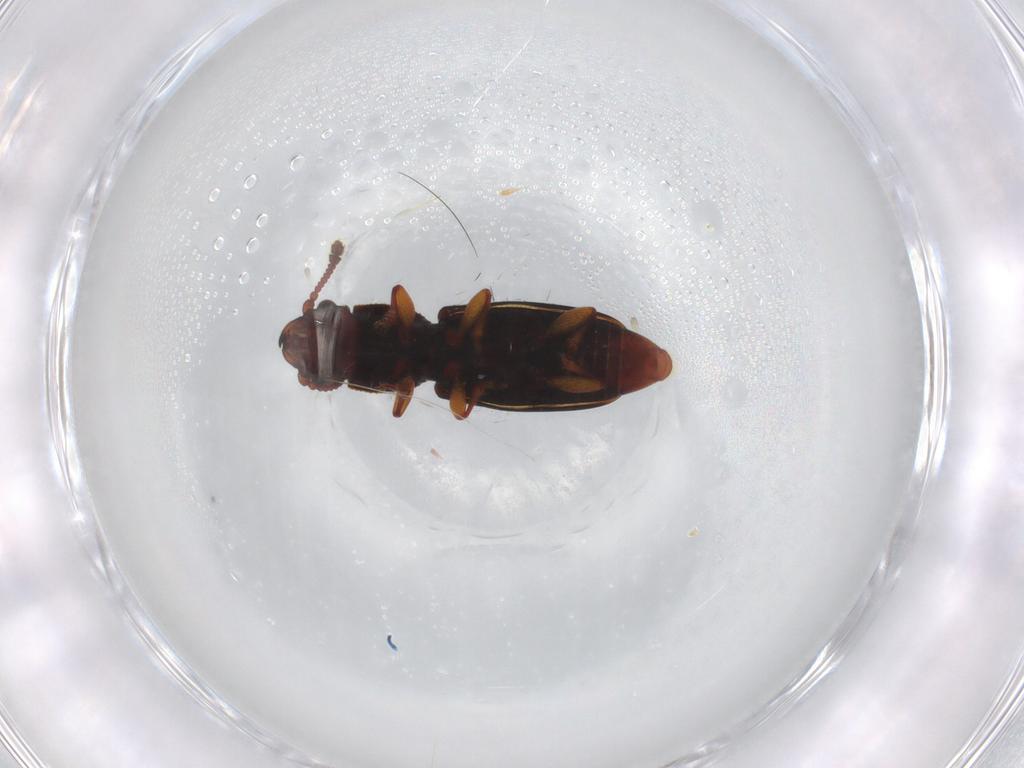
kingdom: Animalia
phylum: Arthropoda
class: Insecta
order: Coleoptera
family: Monotomidae
